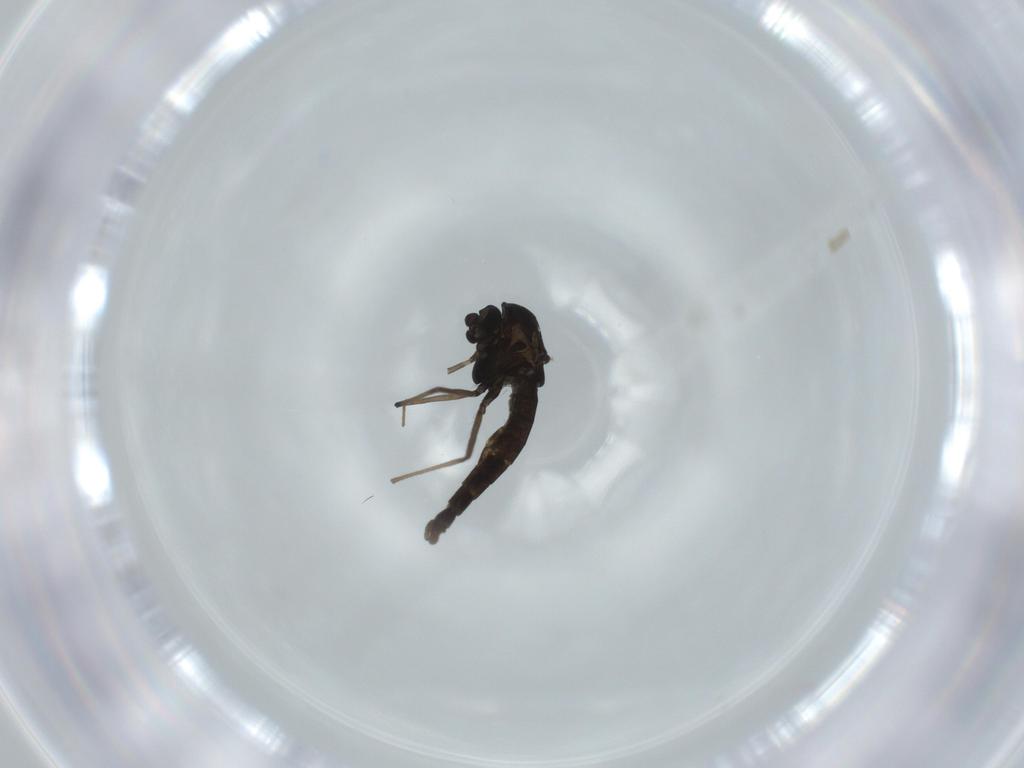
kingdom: Animalia
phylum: Arthropoda
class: Insecta
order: Diptera
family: Chironomidae
